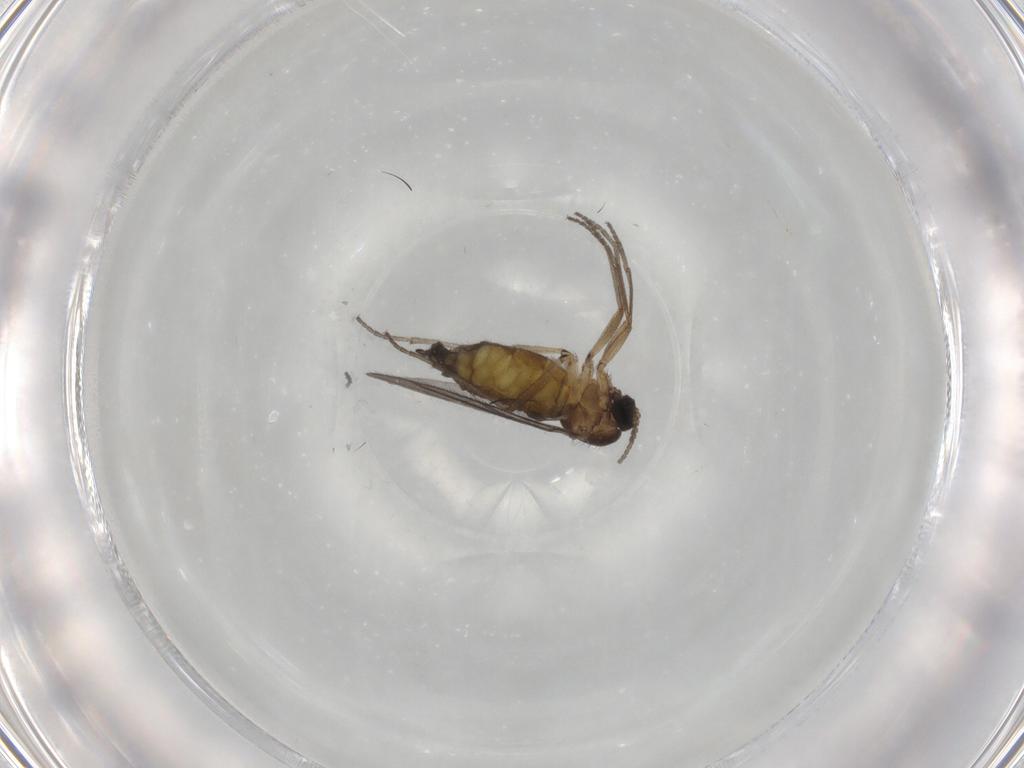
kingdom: Animalia
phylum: Arthropoda
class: Insecta
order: Diptera
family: Sciaridae
